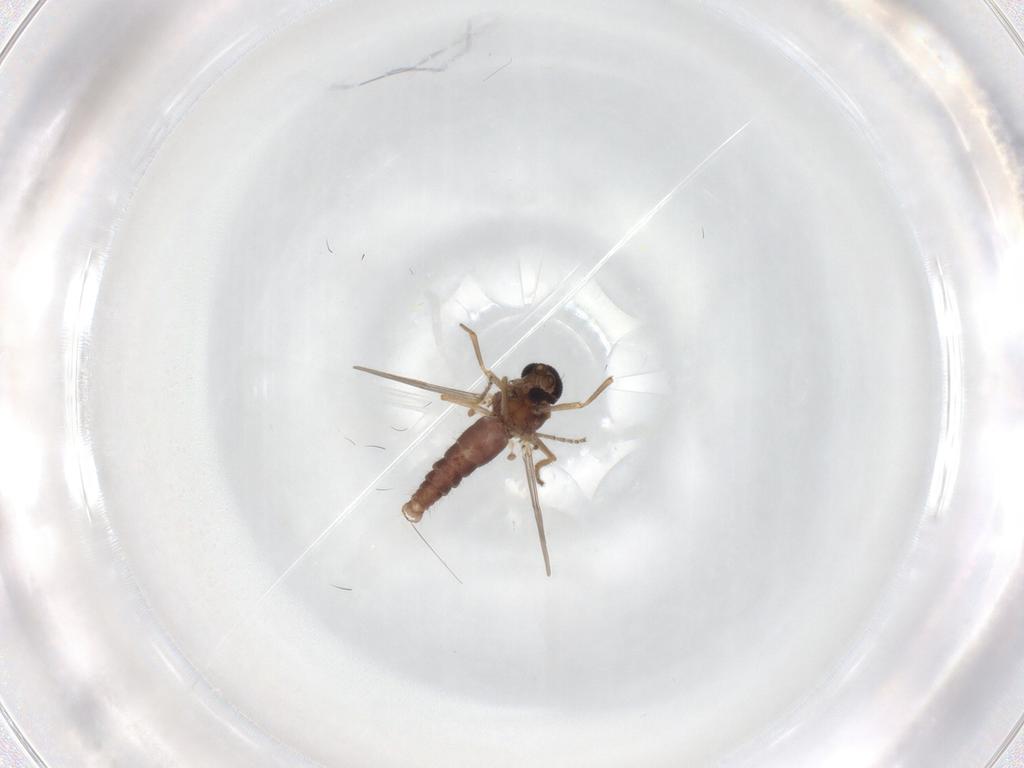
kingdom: Animalia
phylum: Arthropoda
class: Insecta
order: Diptera
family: Ceratopogonidae
